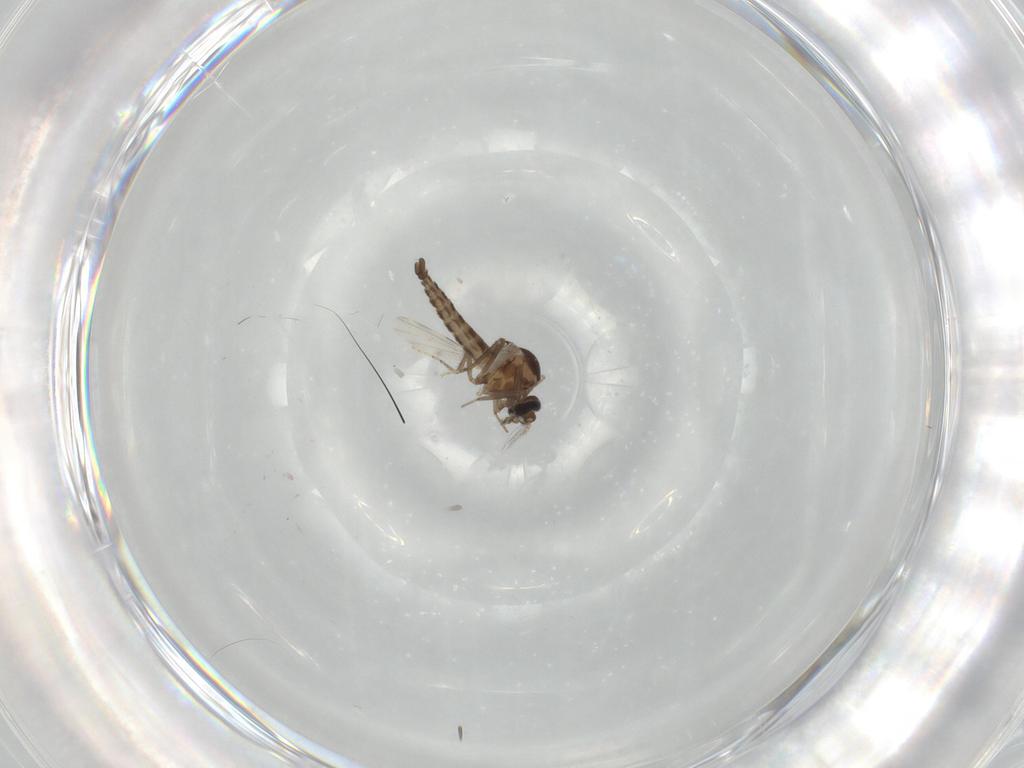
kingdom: Animalia
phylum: Arthropoda
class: Insecta
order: Diptera
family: Ceratopogonidae
